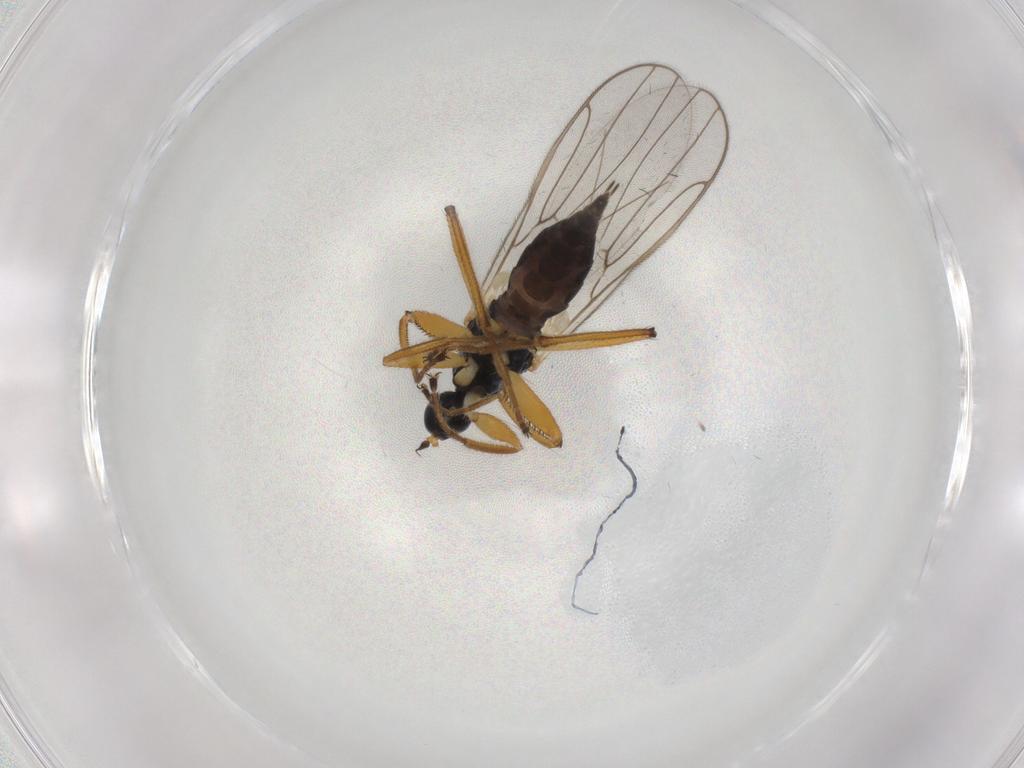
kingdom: Animalia
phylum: Arthropoda
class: Insecta
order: Diptera
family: Hybotidae
